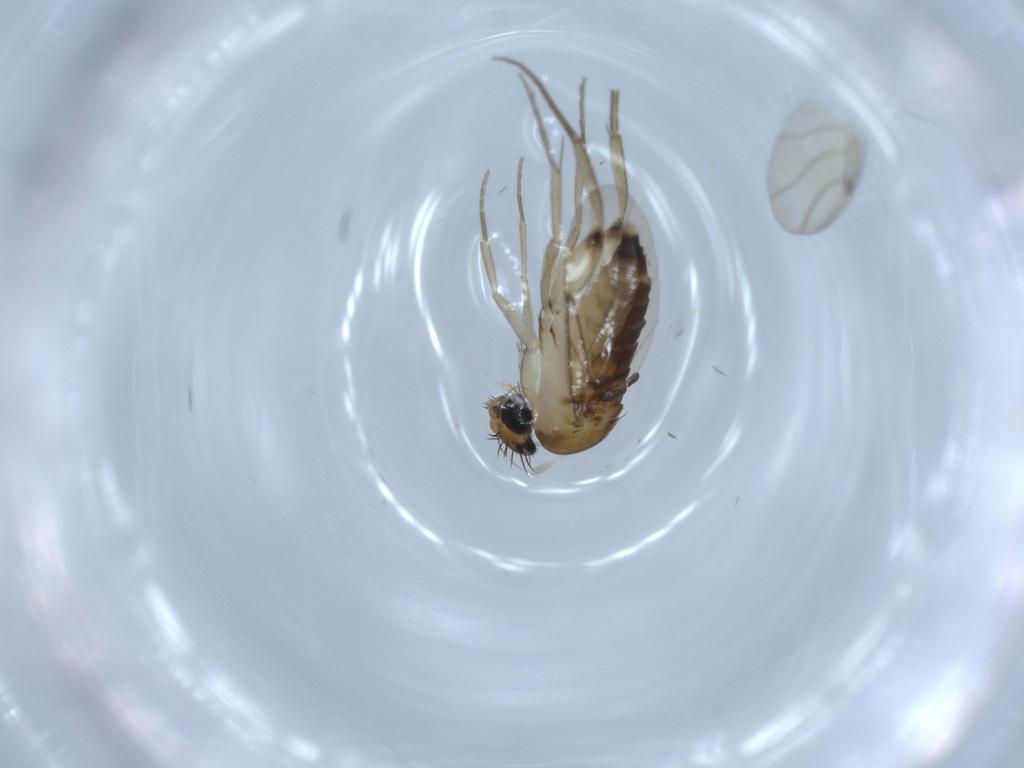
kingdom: Animalia
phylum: Arthropoda
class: Insecta
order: Diptera
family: Phoridae
